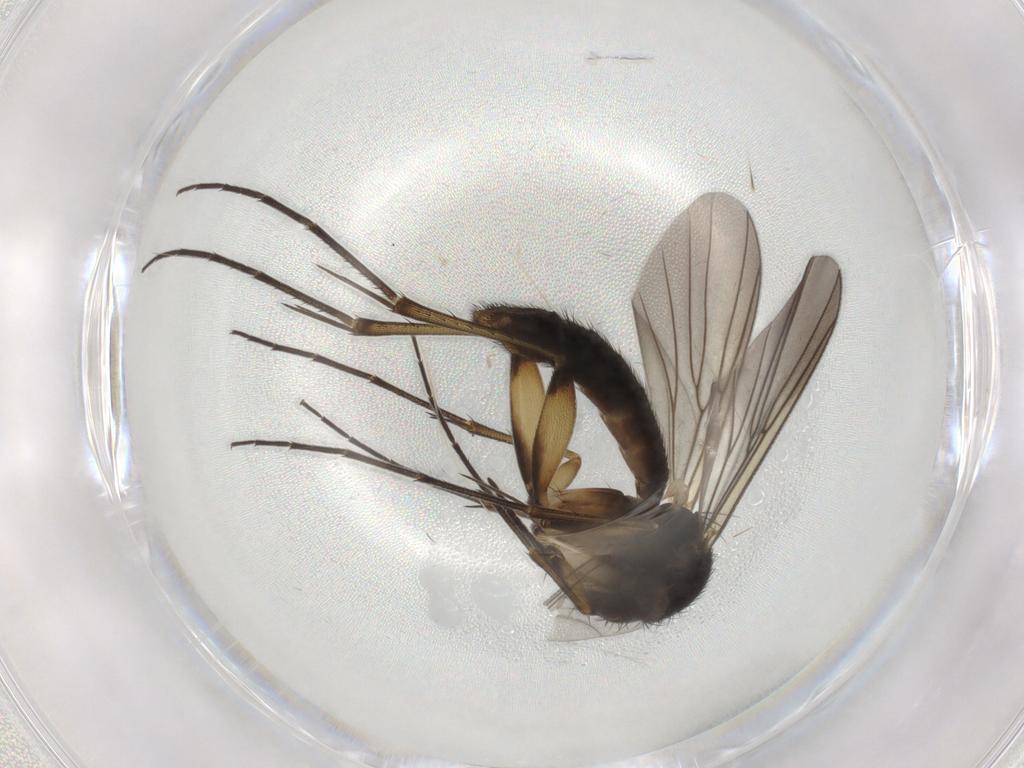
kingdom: Animalia
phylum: Arthropoda
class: Insecta
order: Diptera
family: Mycetophilidae
